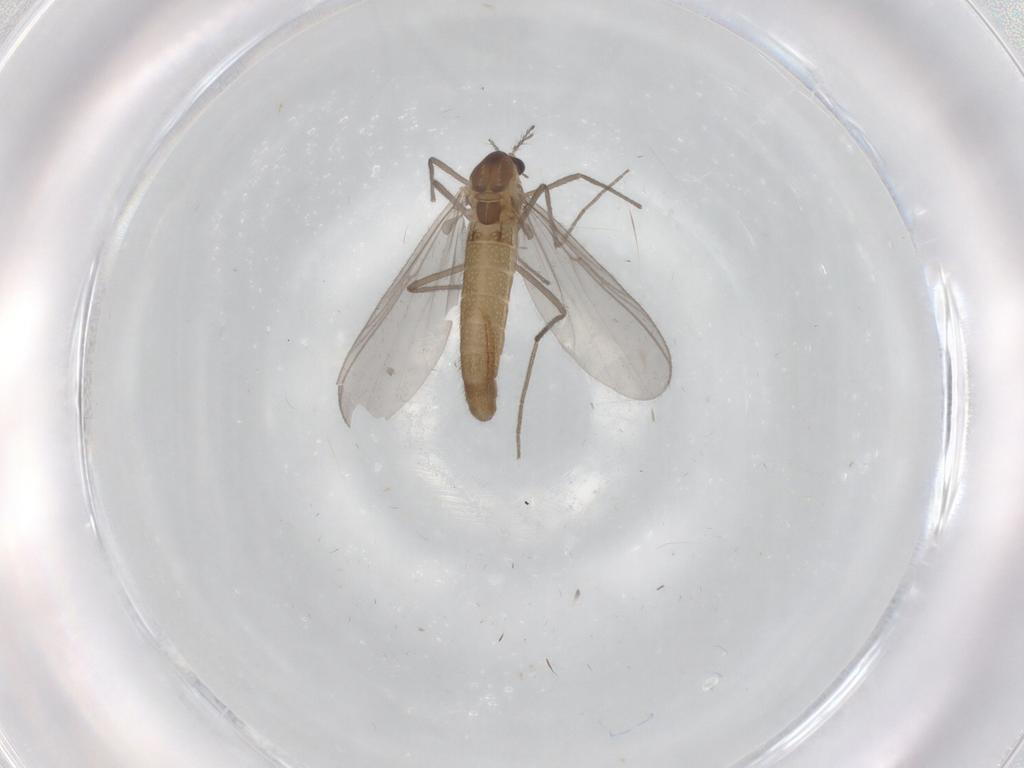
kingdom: Animalia
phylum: Arthropoda
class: Insecta
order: Diptera
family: Chironomidae
